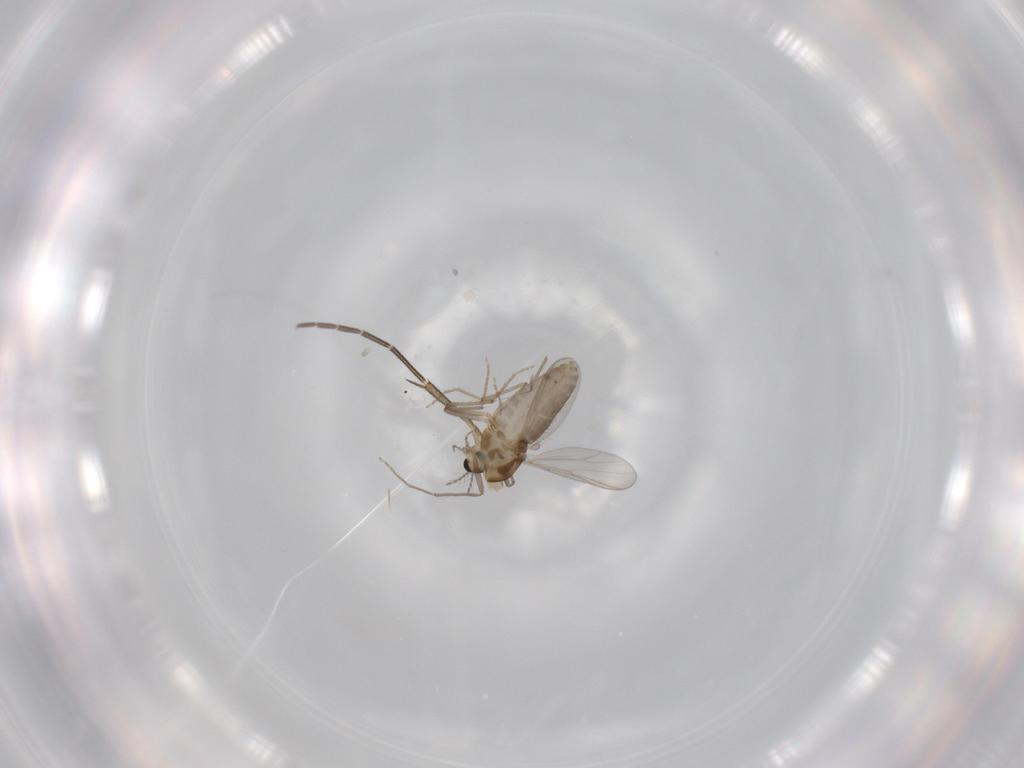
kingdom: Animalia
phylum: Arthropoda
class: Insecta
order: Diptera
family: Chironomidae
